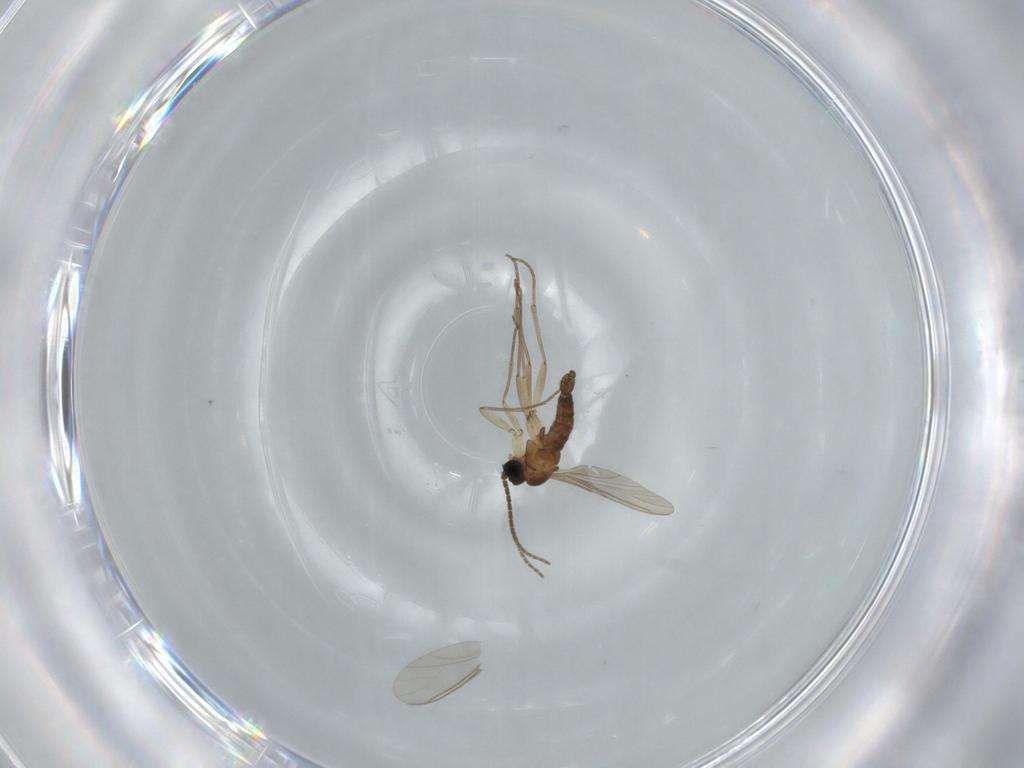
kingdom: Animalia
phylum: Arthropoda
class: Insecta
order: Diptera
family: Sciaridae
